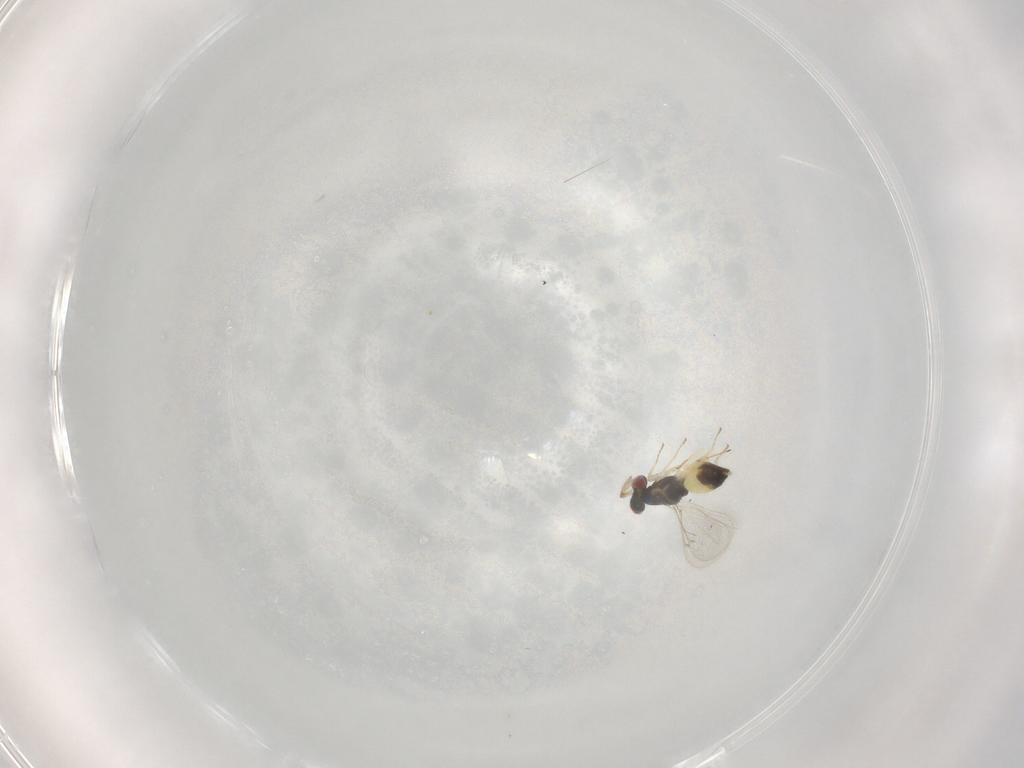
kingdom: Animalia
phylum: Arthropoda
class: Insecta
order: Hymenoptera
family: Eulophidae
